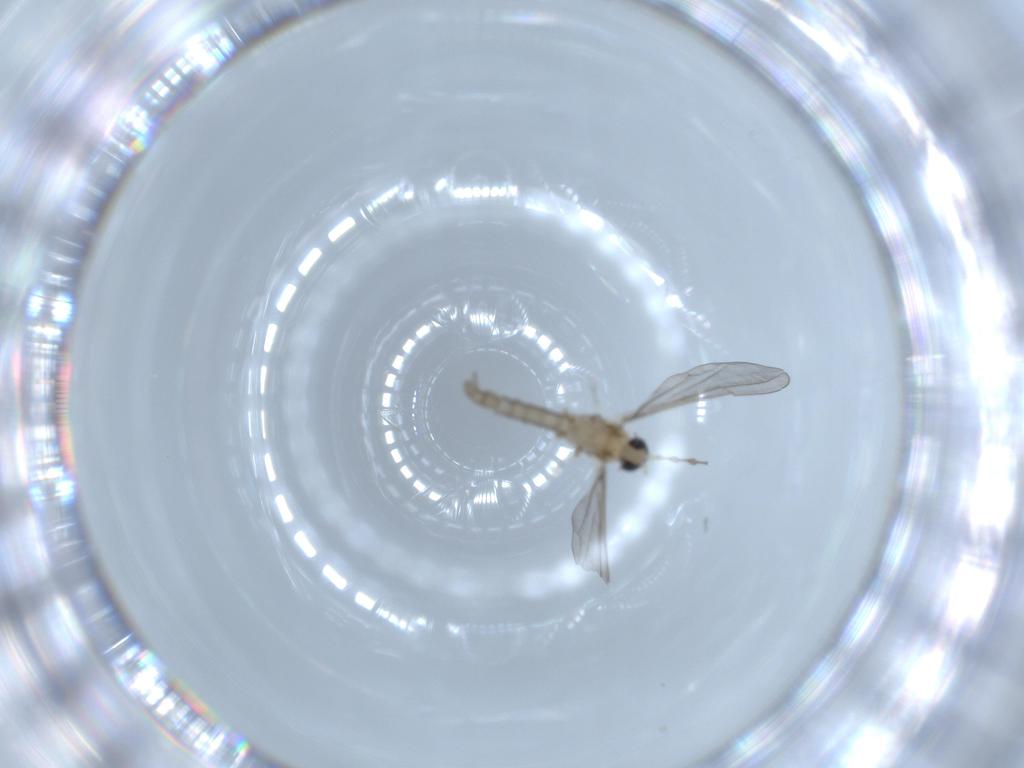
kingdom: Animalia
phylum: Arthropoda
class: Insecta
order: Diptera
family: Cecidomyiidae
